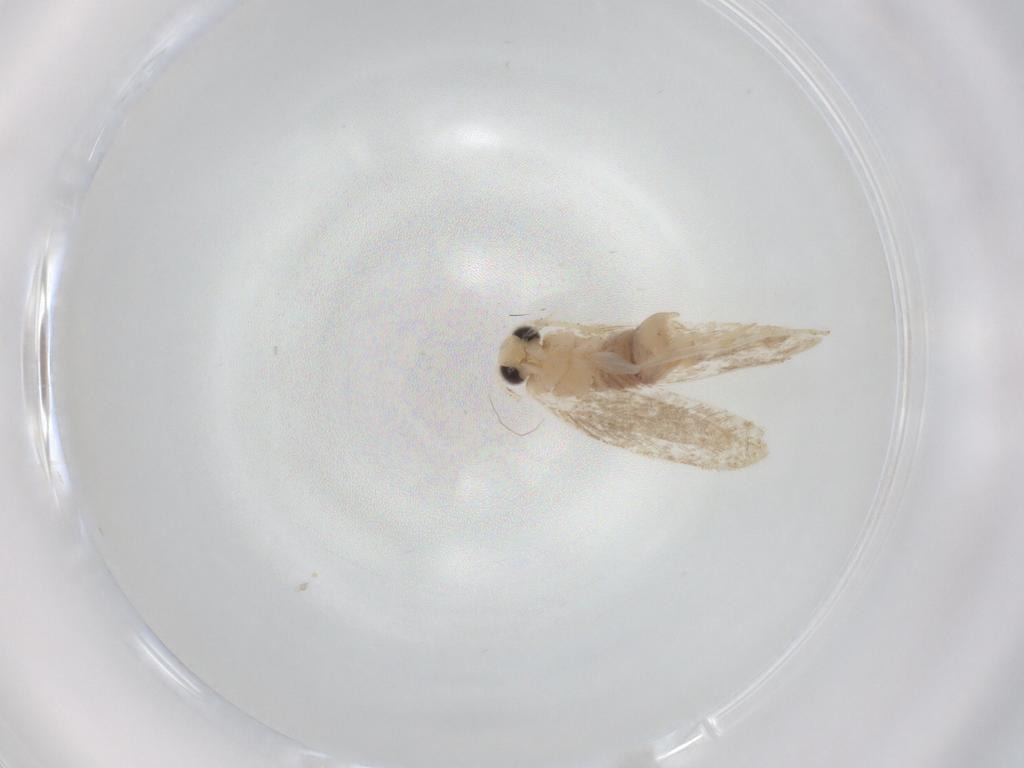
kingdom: Animalia
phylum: Arthropoda
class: Insecta
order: Lepidoptera
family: Dryadaulidae
